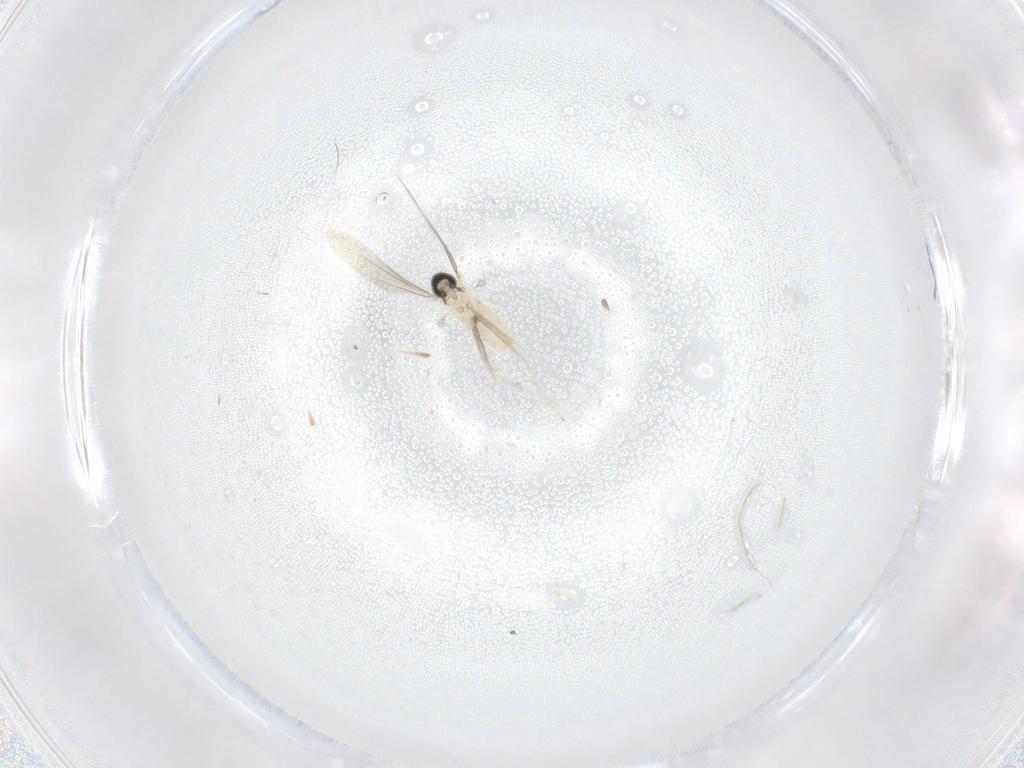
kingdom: Animalia
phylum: Arthropoda
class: Insecta
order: Diptera
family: Cecidomyiidae
